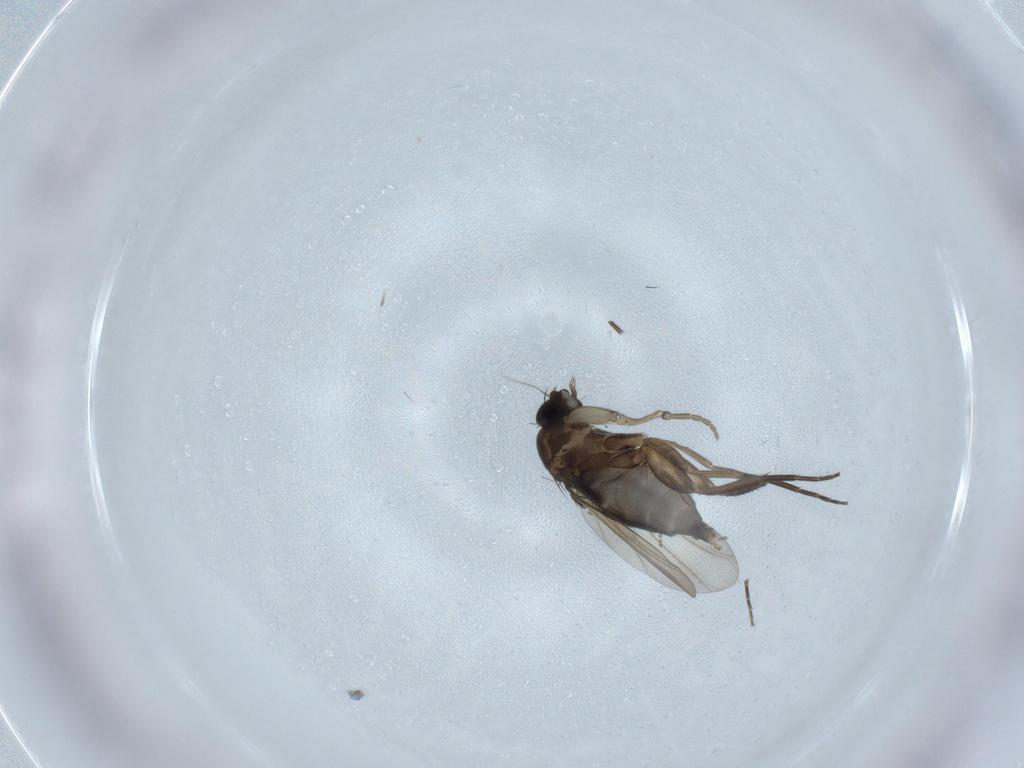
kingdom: Animalia
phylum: Arthropoda
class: Insecta
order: Diptera
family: Phoridae
